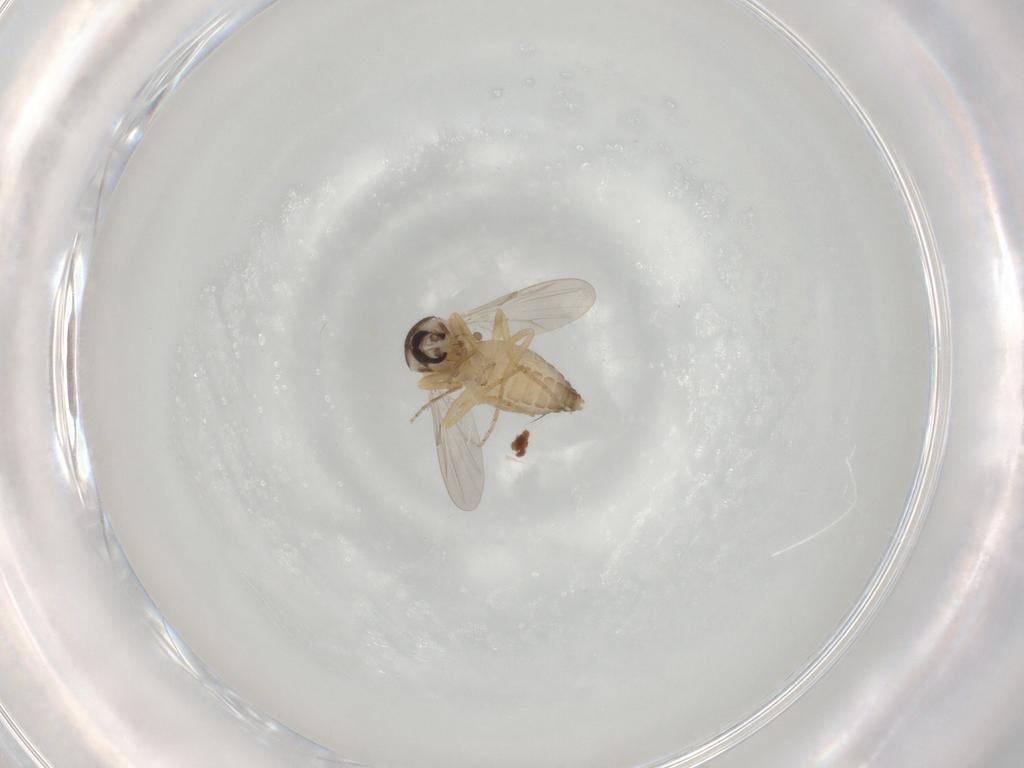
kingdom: Animalia
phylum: Arthropoda
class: Insecta
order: Diptera
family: Ceratopogonidae
